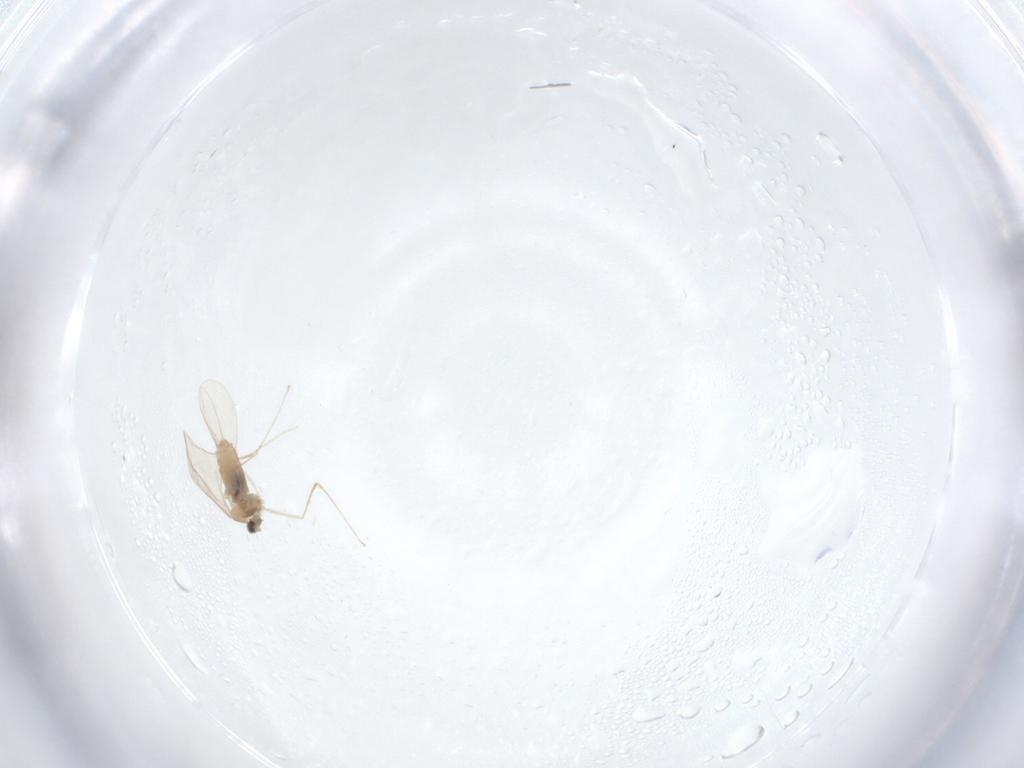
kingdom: Animalia
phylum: Arthropoda
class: Insecta
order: Diptera
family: Cecidomyiidae
